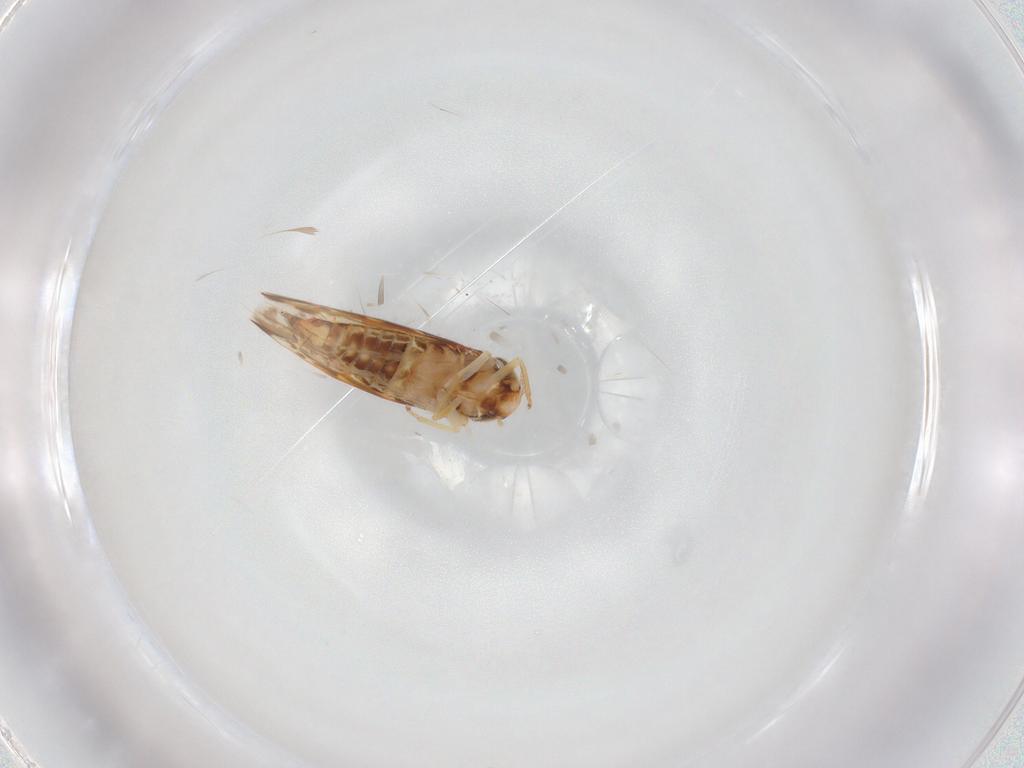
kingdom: Animalia
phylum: Arthropoda
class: Insecta
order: Hemiptera
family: Cicadellidae
